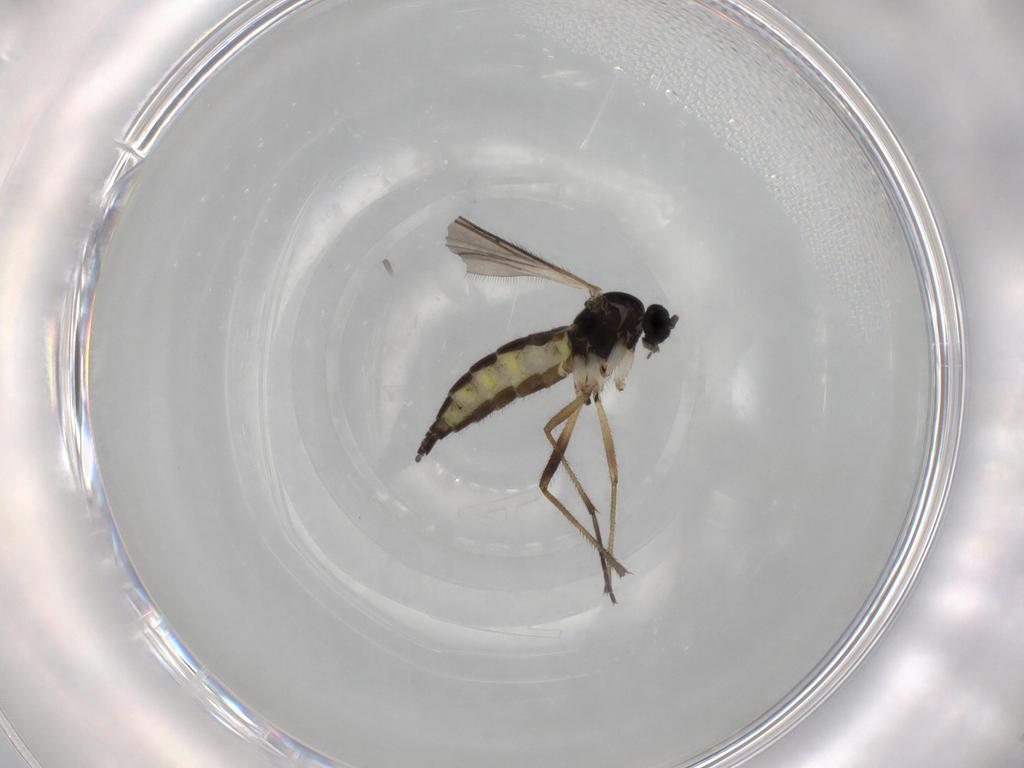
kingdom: Animalia
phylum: Arthropoda
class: Insecta
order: Diptera
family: Sciaridae
